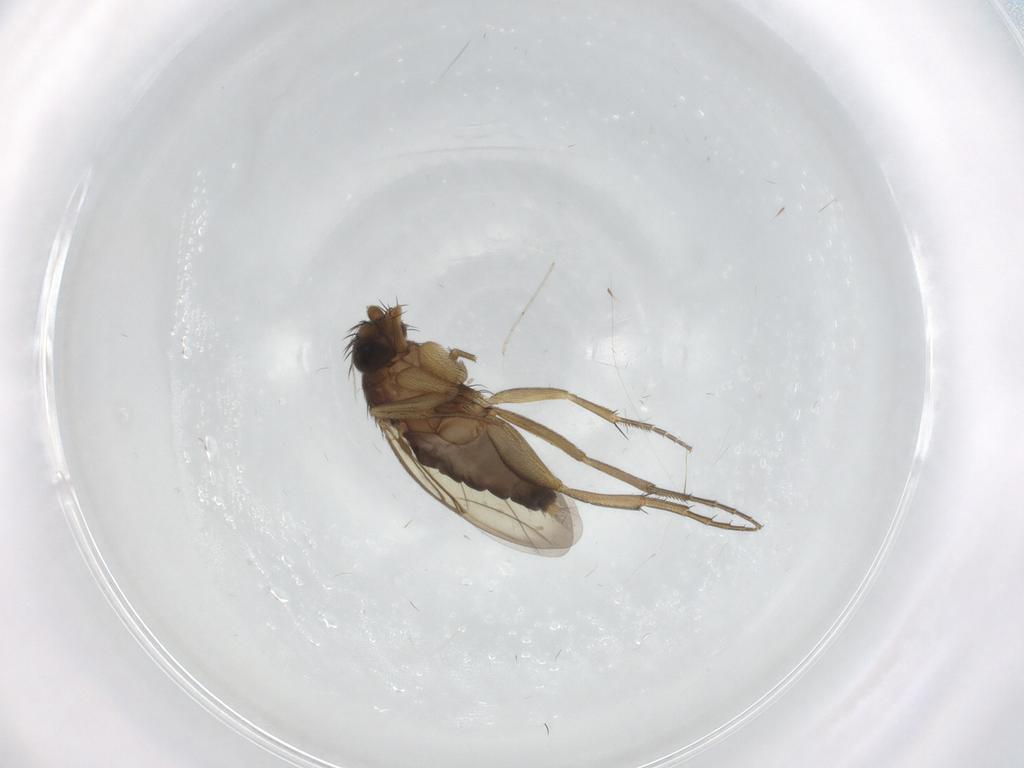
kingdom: Animalia
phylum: Arthropoda
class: Insecta
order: Diptera
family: Phoridae
